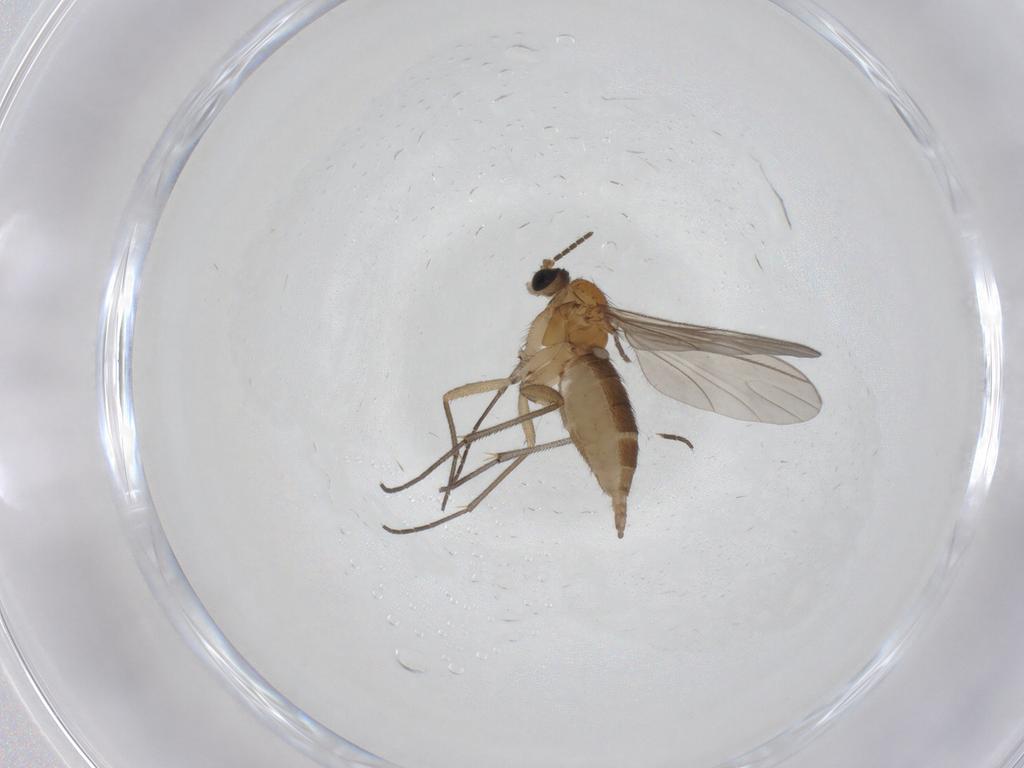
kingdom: Animalia
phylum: Arthropoda
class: Insecta
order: Diptera
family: Sciaridae
